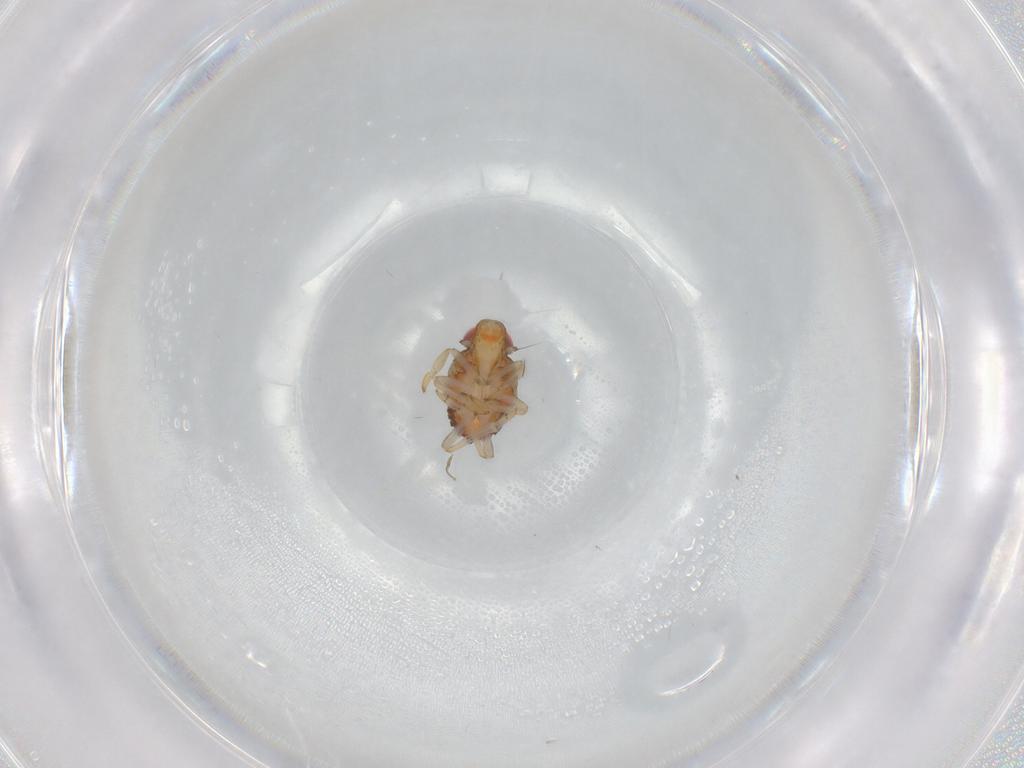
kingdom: Animalia
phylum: Arthropoda
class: Insecta
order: Hemiptera
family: Issidae
